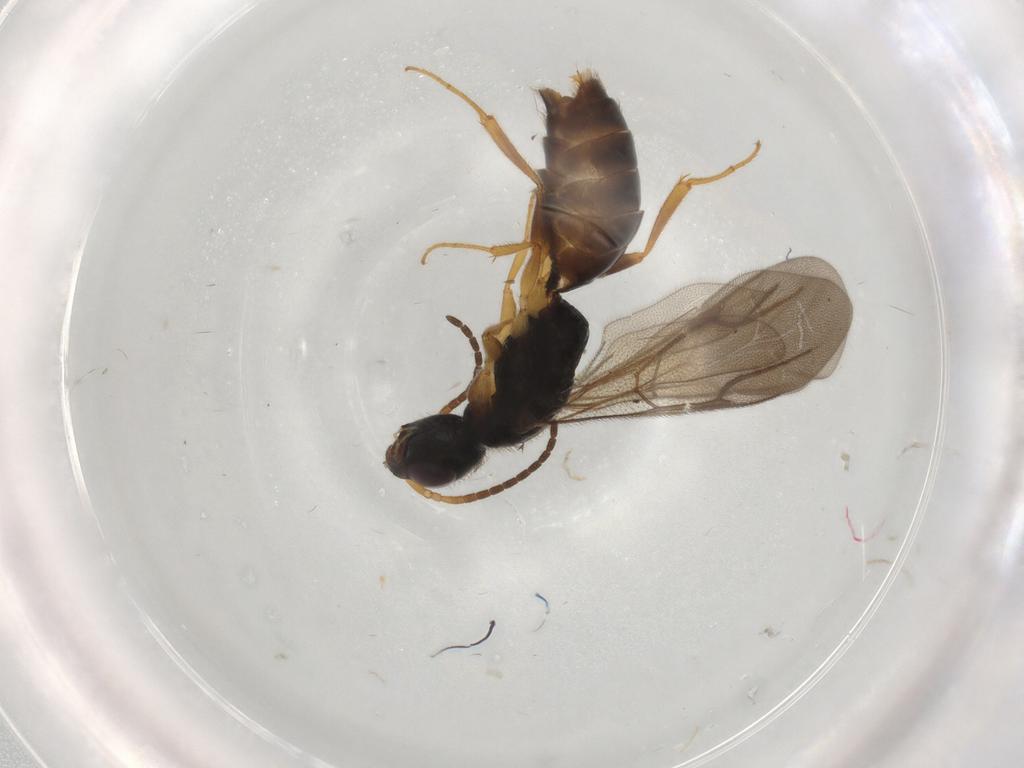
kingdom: Animalia
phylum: Arthropoda
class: Insecta
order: Hymenoptera
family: Bethylidae
